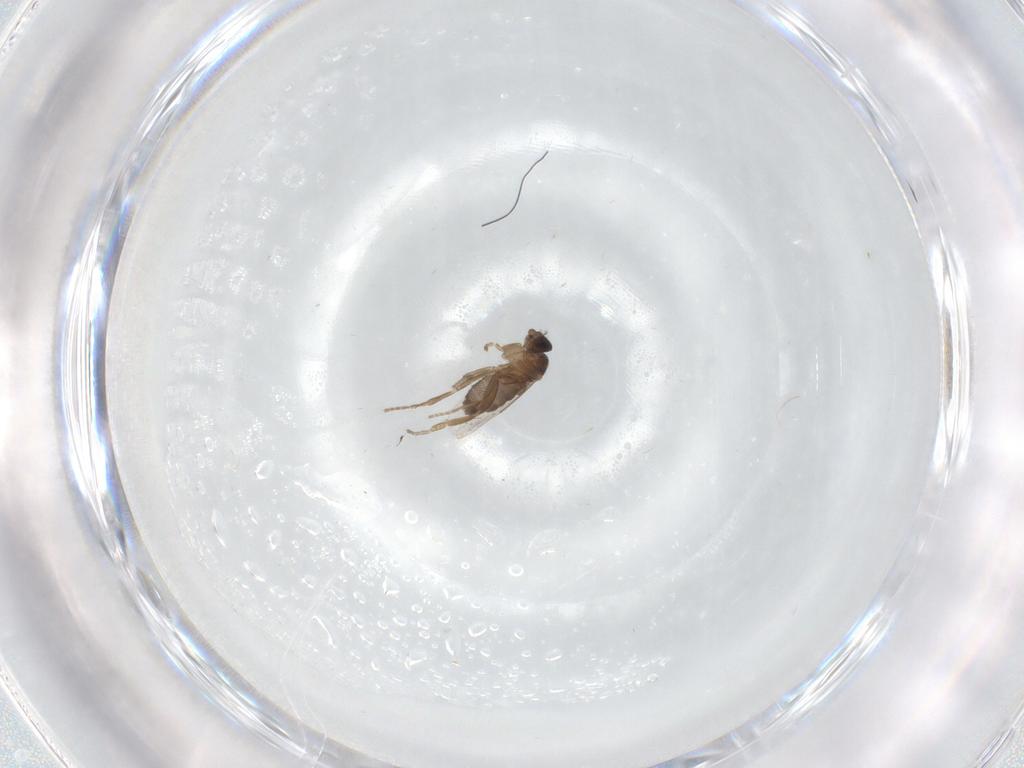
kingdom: Animalia
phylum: Arthropoda
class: Insecta
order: Diptera
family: Phoridae
